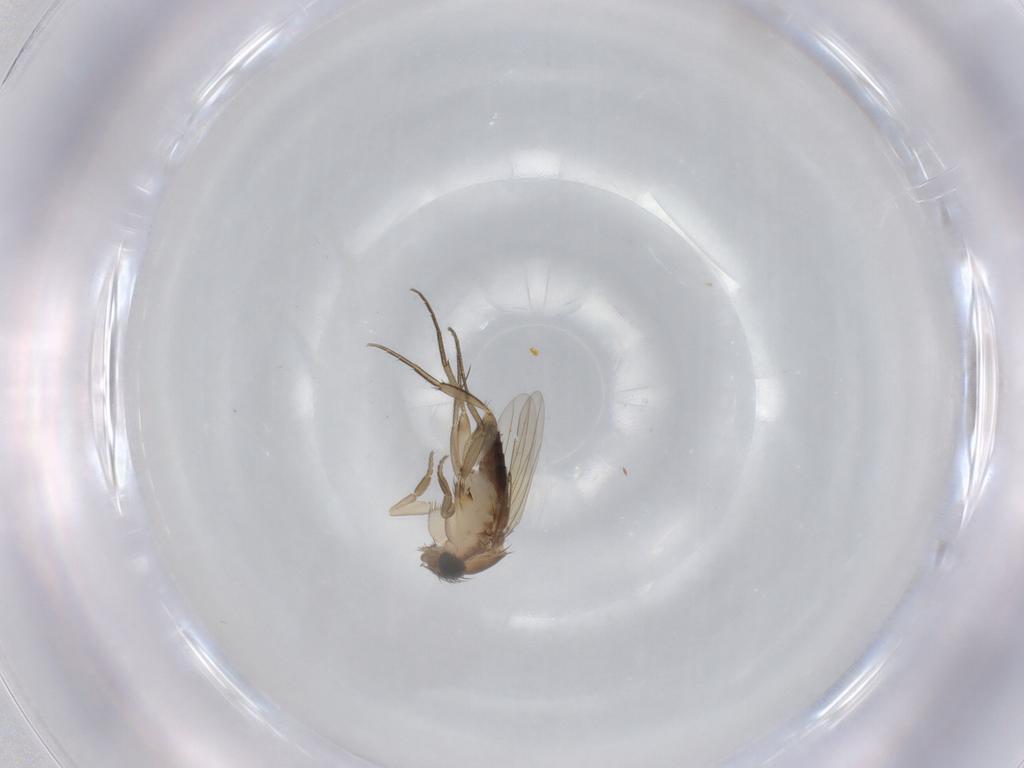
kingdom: Animalia
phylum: Arthropoda
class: Insecta
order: Diptera
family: Phoridae
